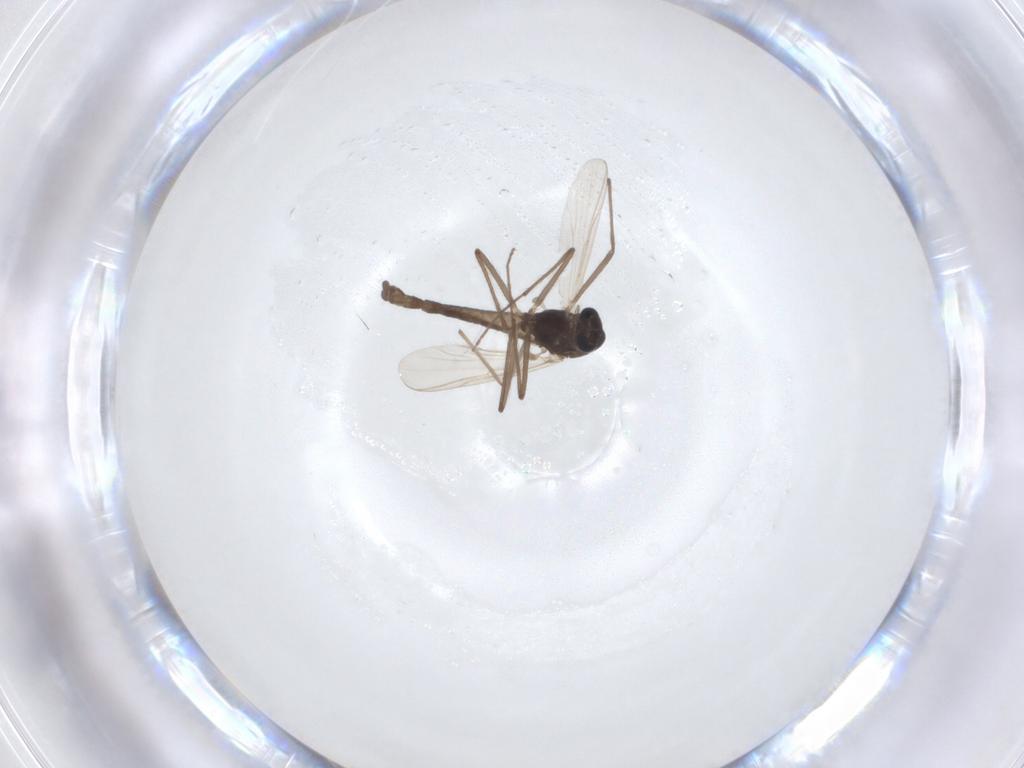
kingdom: Animalia
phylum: Arthropoda
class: Insecta
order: Diptera
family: Chironomidae
